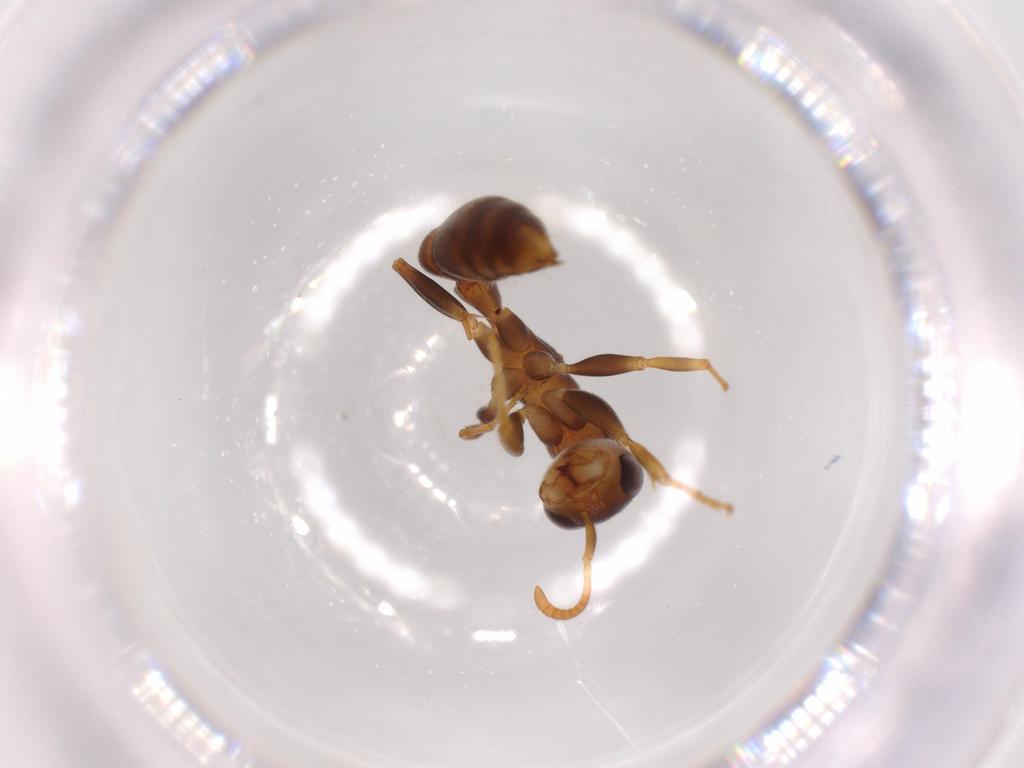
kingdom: Animalia
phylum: Arthropoda
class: Insecta
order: Hymenoptera
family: Formicidae
